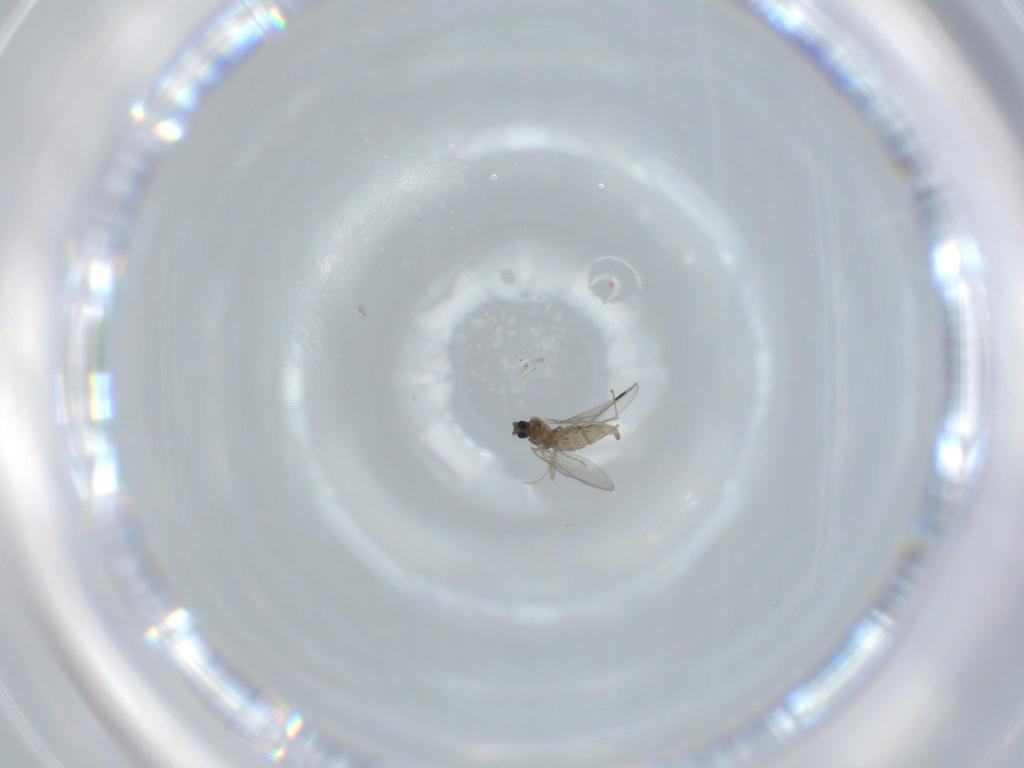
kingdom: Animalia
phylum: Arthropoda
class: Insecta
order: Diptera
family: Cecidomyiidae
